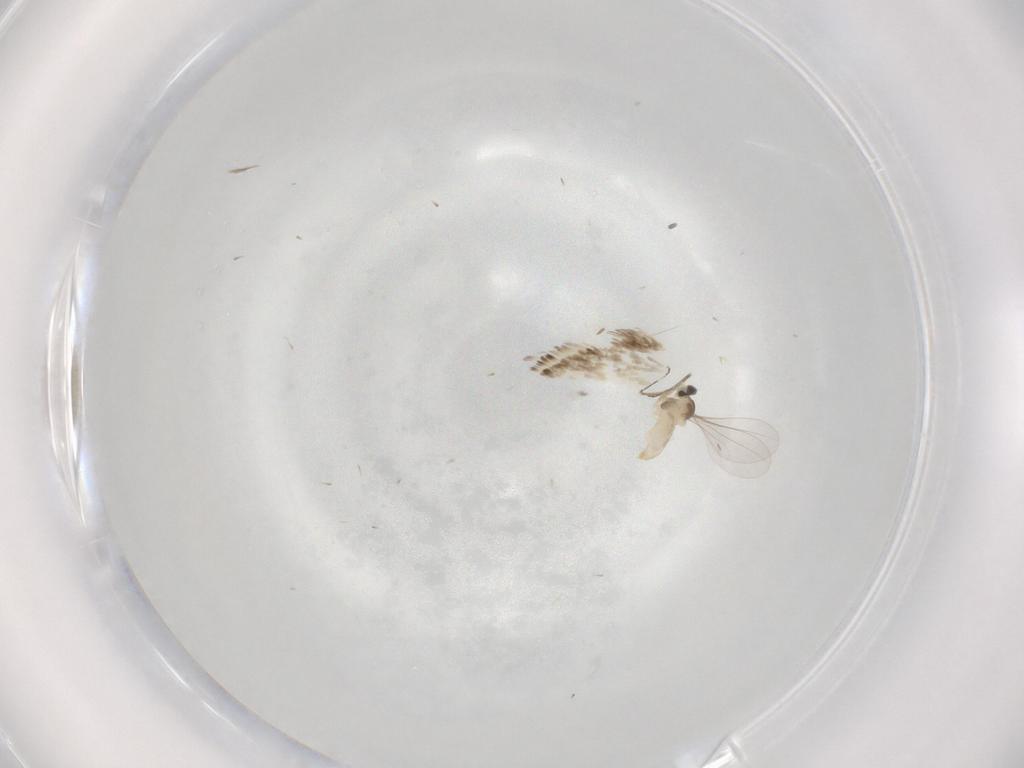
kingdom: Animalia
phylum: Arthropoda
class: Insecta
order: Diptera
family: Cecidomyiidae
